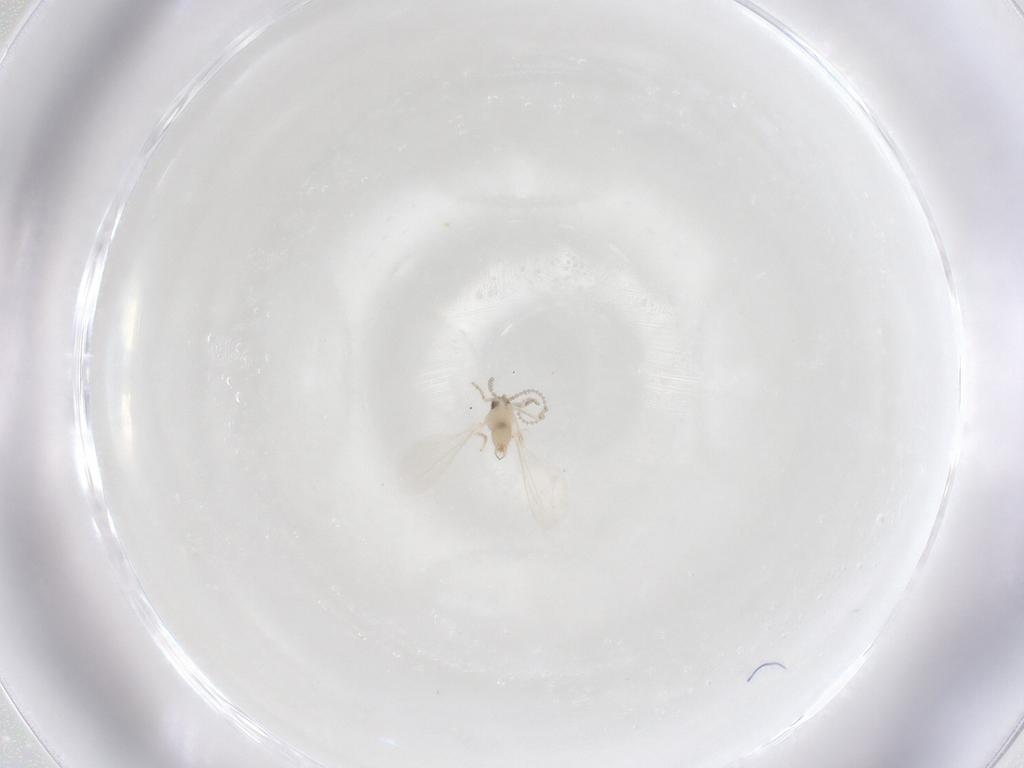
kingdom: Animalia
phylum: Arthropoda
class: Insecta
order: Diptera
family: Cecidomyiidae
